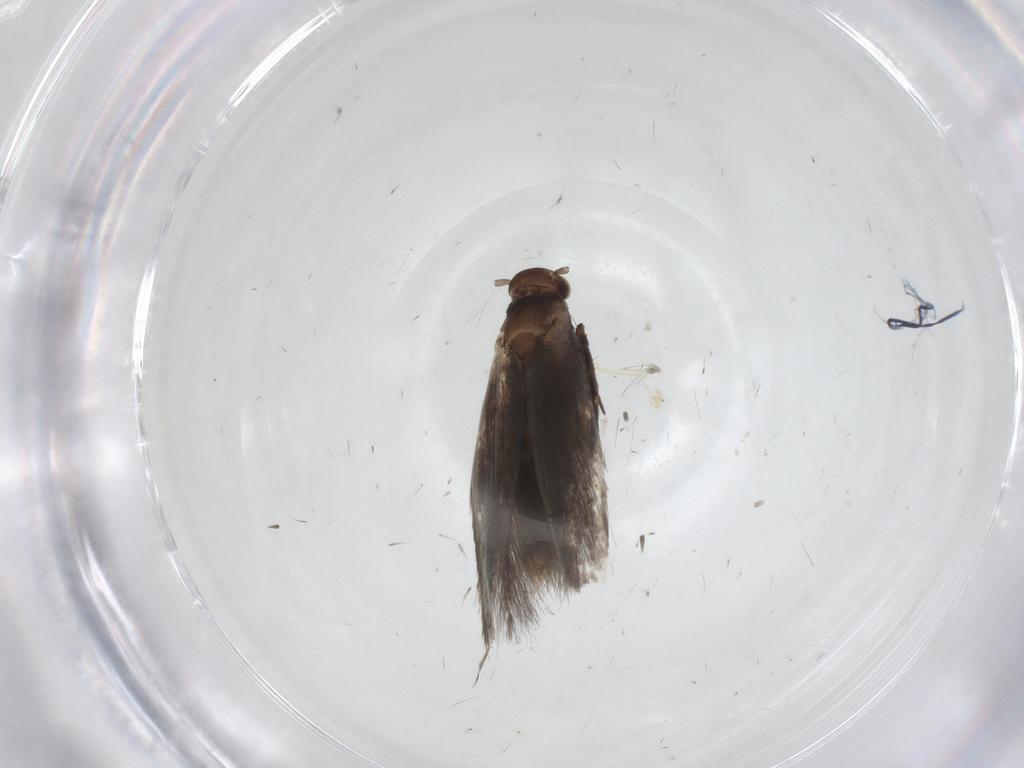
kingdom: Animalia
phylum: Arthropoda
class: Insecta
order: Lepidoptera
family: Elachistidae
